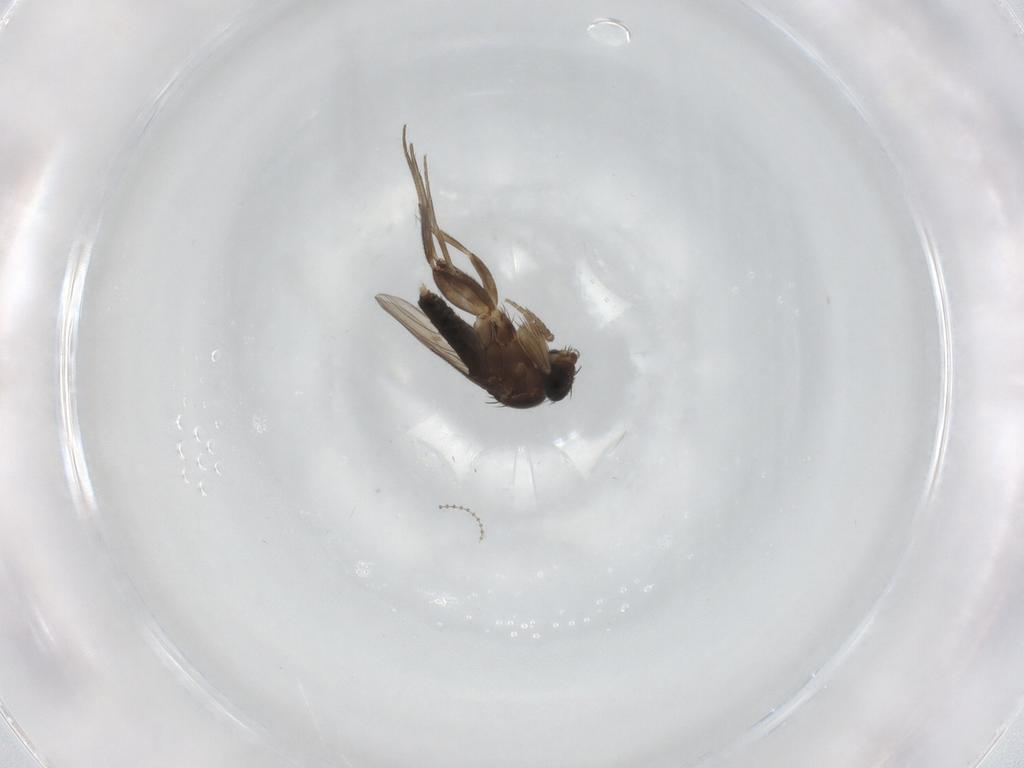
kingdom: Animalia
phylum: Arthropoda
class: Insecta
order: Diptera
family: Phoridae
